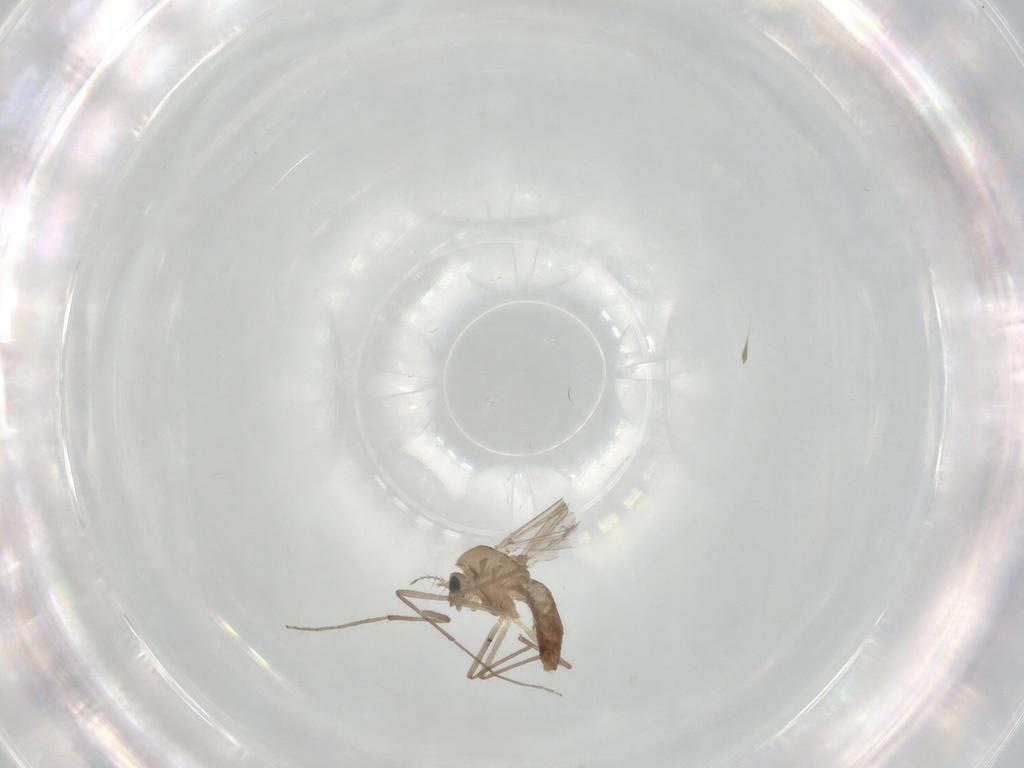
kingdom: Animalia
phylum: Arthropoda
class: Insecta
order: Diptera
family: Chironomidae
